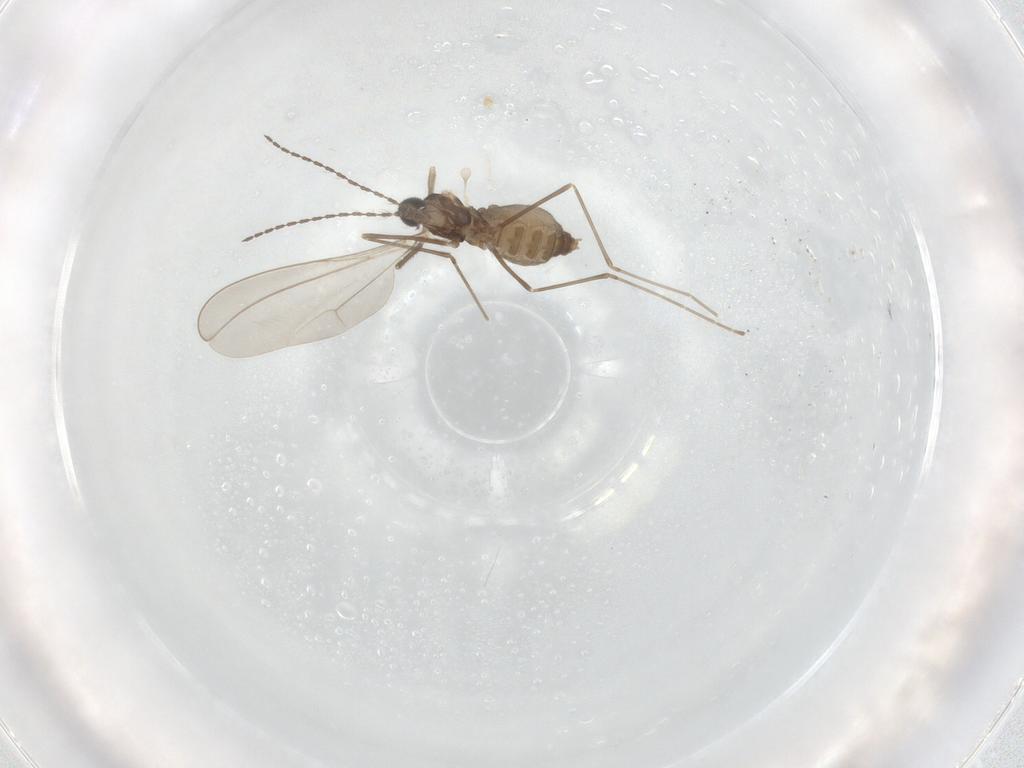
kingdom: Animalia
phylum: Arthropoda
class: Insecta
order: Diptera
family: Cecidomyiidae
